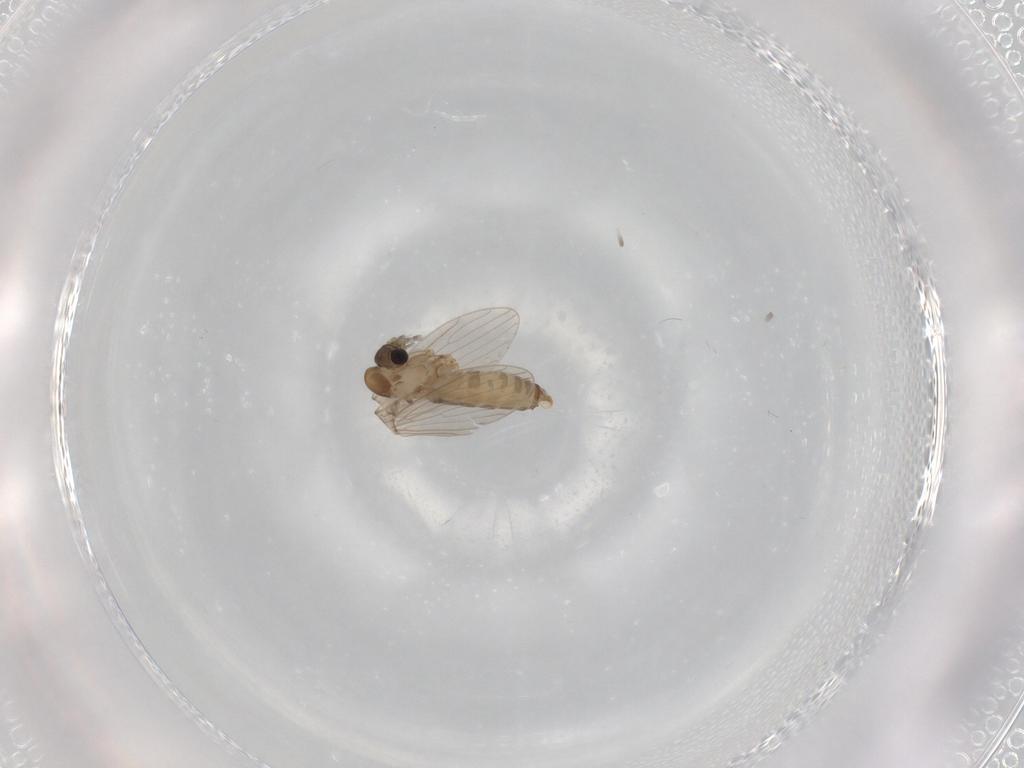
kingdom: Animalia
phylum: Arthropoda
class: Insecta
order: Diptera
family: Psychodidae
